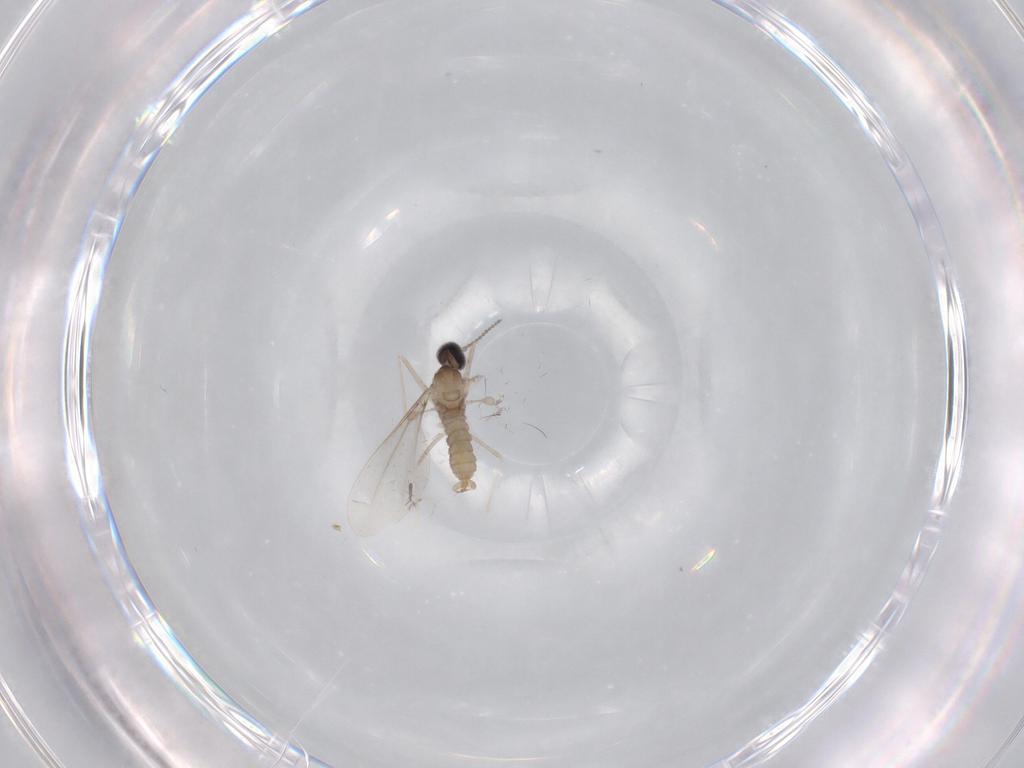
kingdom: Animalia
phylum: Arthropoda
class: Insecta
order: Diptera
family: Cecidomyiidae
